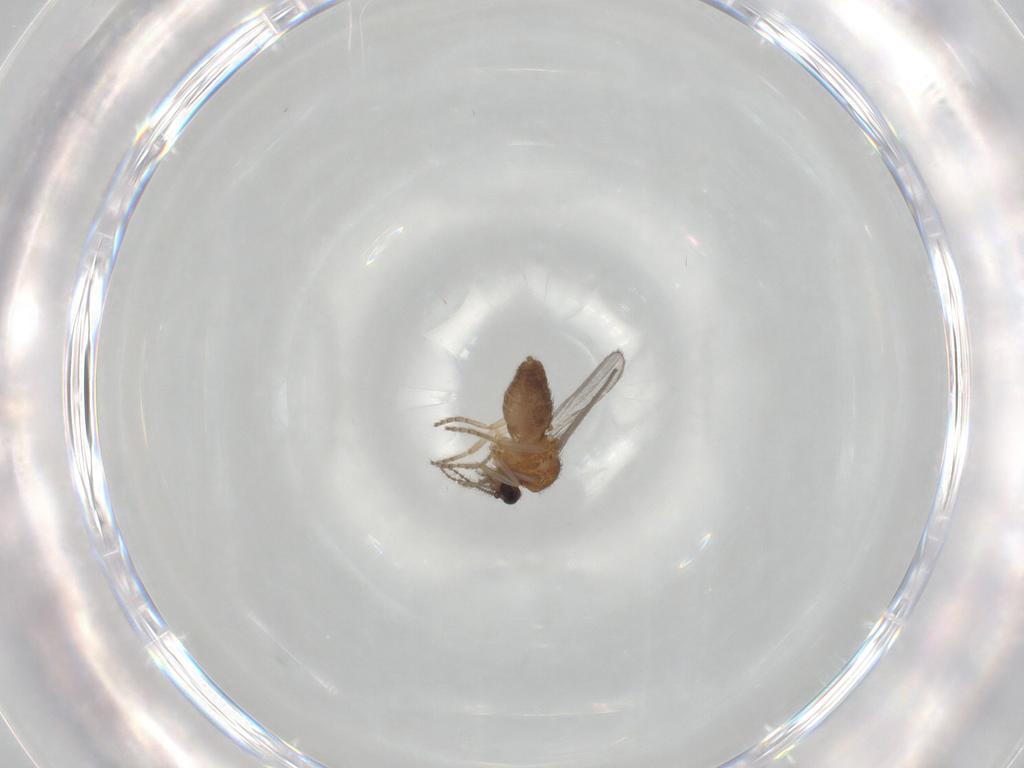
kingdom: Animalia
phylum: Arthropoda
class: Insecta
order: Diptera
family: Ceratopogonidae
